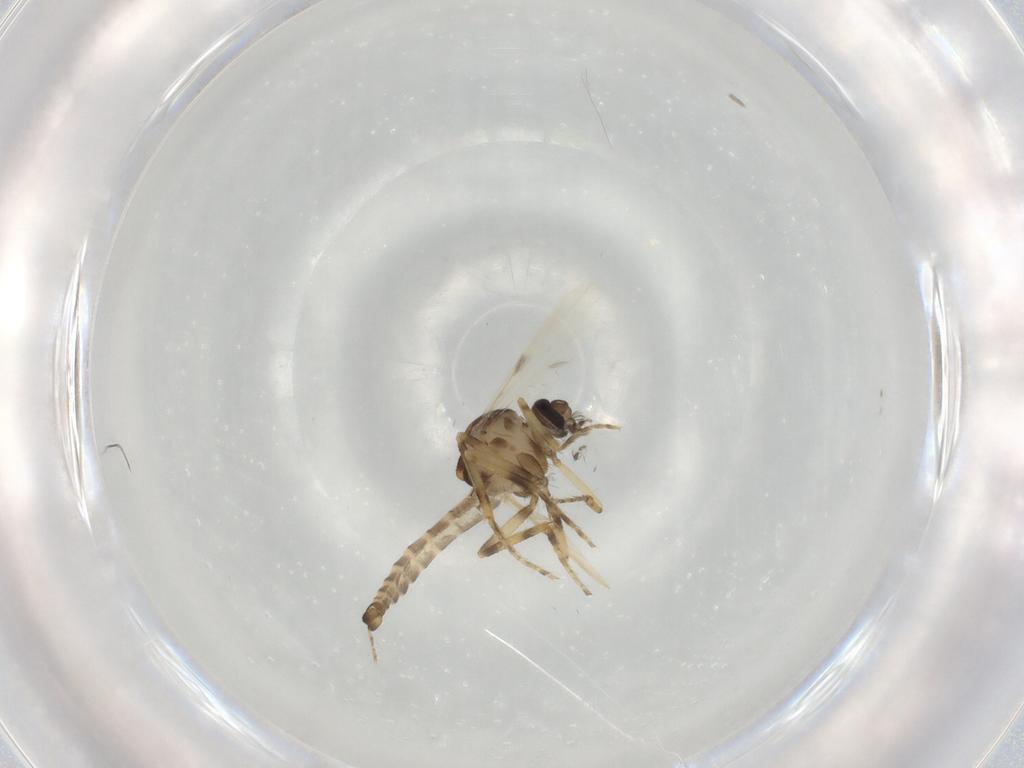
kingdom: Animalia
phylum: Arthropoda
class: Insecta
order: Diptera
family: Ceratopogonidae
